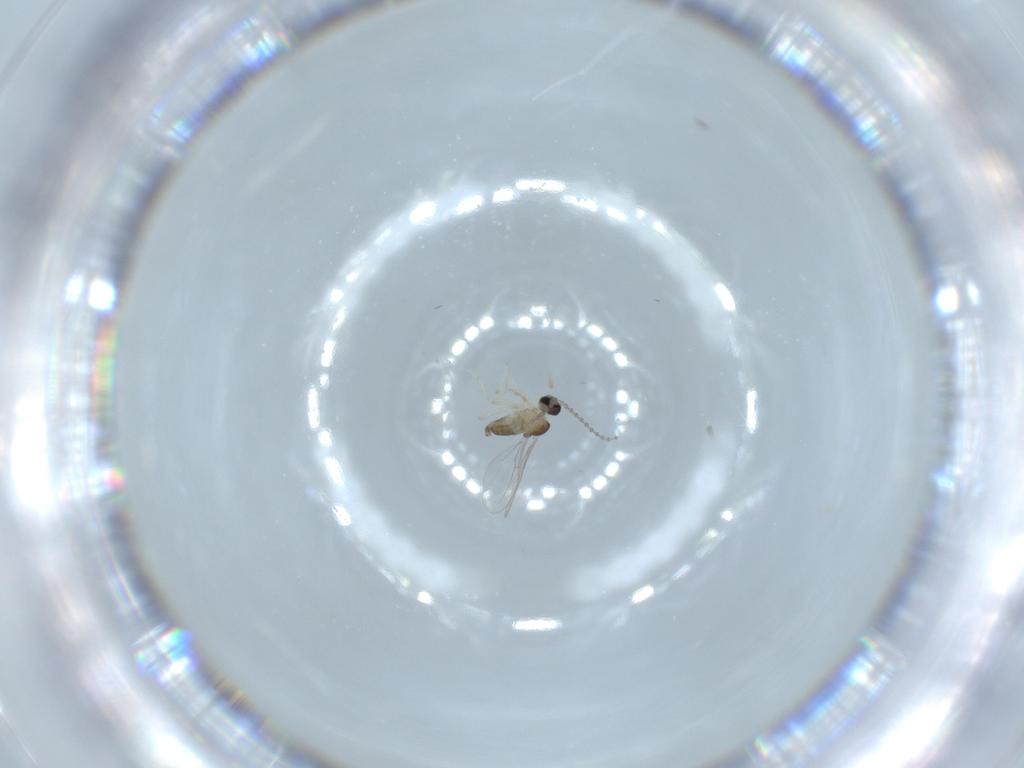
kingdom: Animalia
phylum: Arthropoda
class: Insecta
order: Diptera
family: Cecidomyiidae
